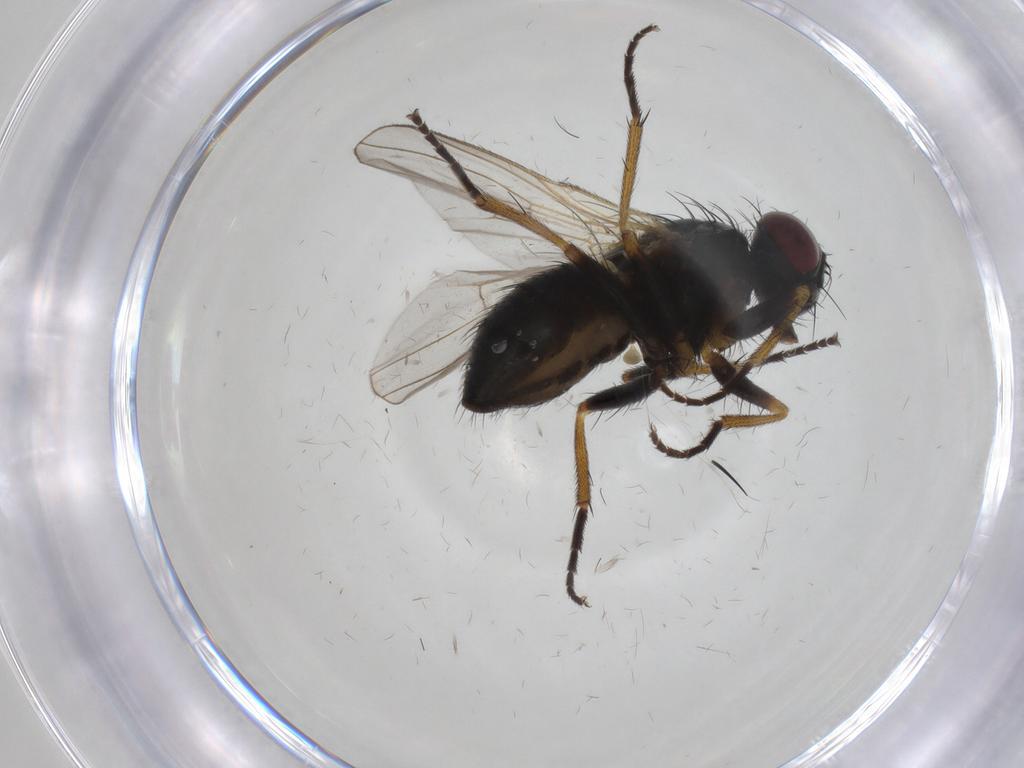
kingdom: Animalia
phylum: Arthropoda
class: Insecta
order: Diptera
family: Muscidae
